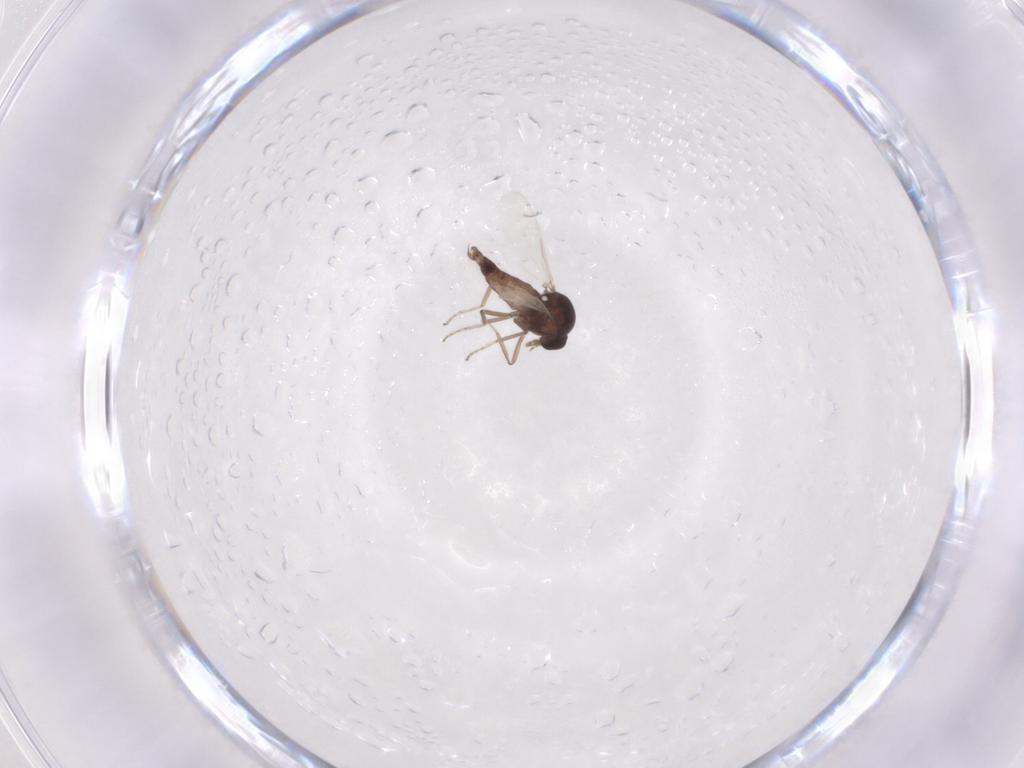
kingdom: Animalia
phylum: Arthropoda
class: Insecta
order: Diptera
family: Ceratopogonidae
